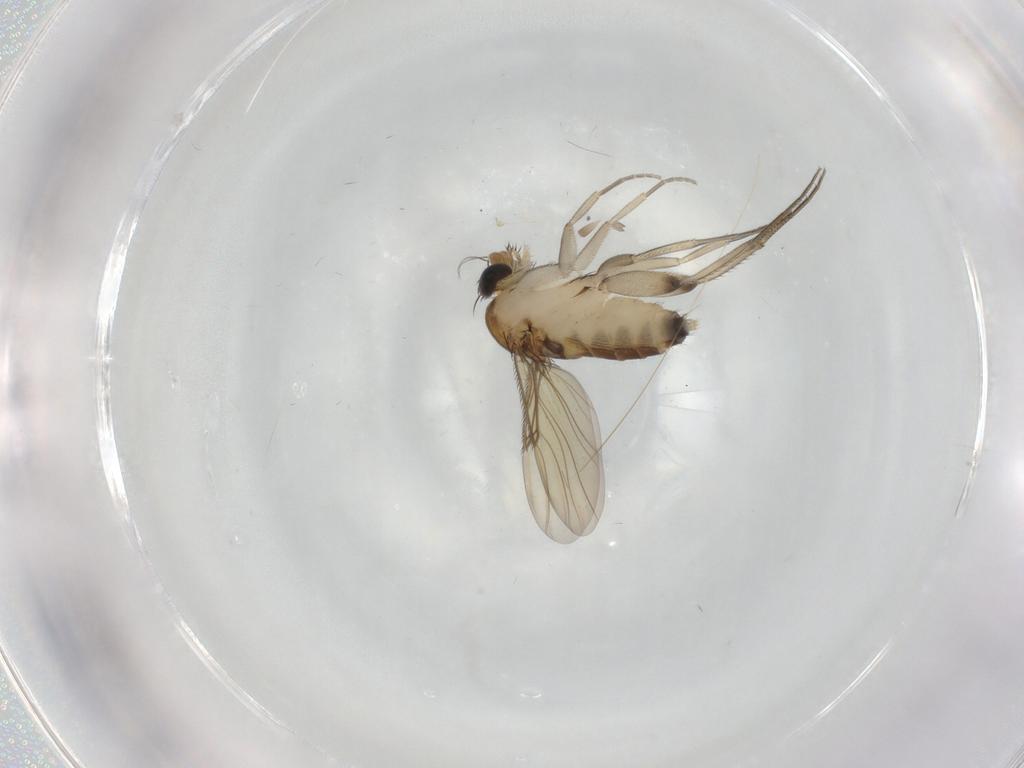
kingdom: Animalia
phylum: Arthropoda
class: Insecta
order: Diptera
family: Phoridae
